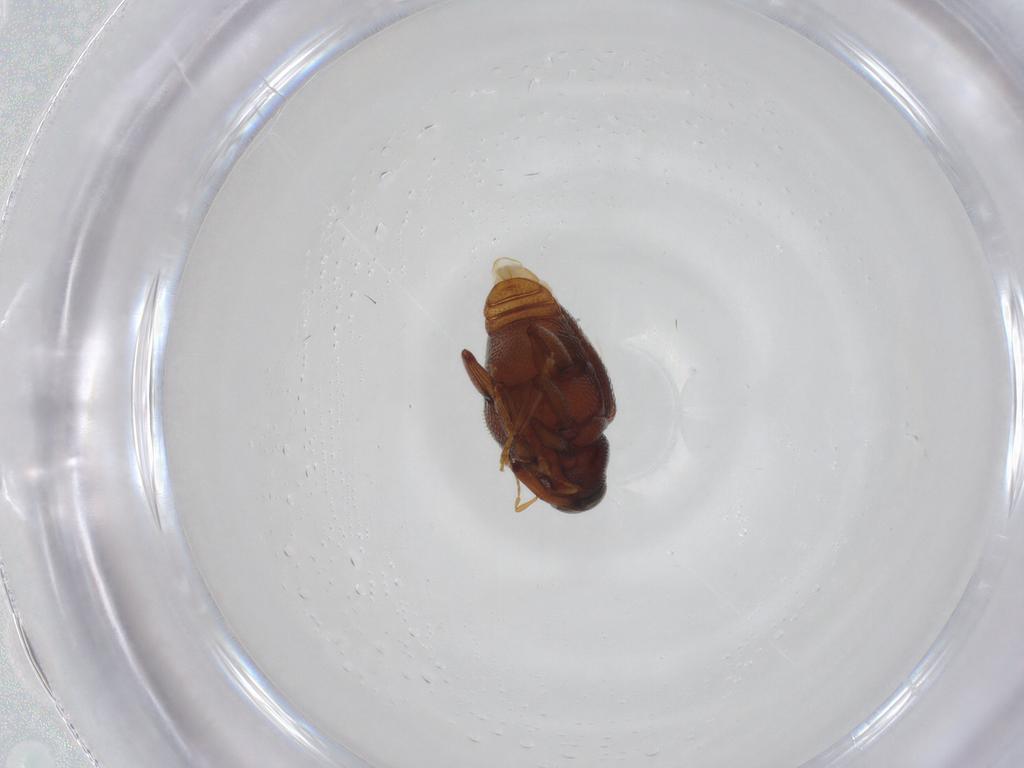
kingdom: Animalia
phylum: Arthropoda
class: Insecta
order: Coleoptera
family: Curculionidae
